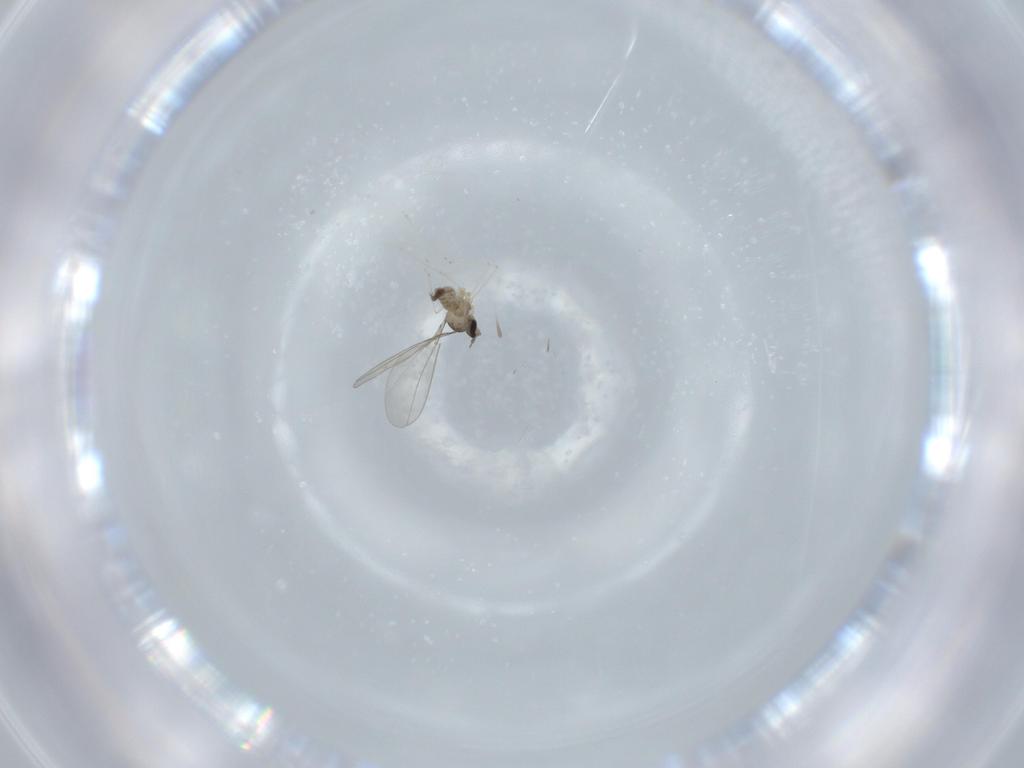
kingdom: Animalia
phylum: Arthropoda
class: Insecta
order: Diptera
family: Cecidomyiidae
